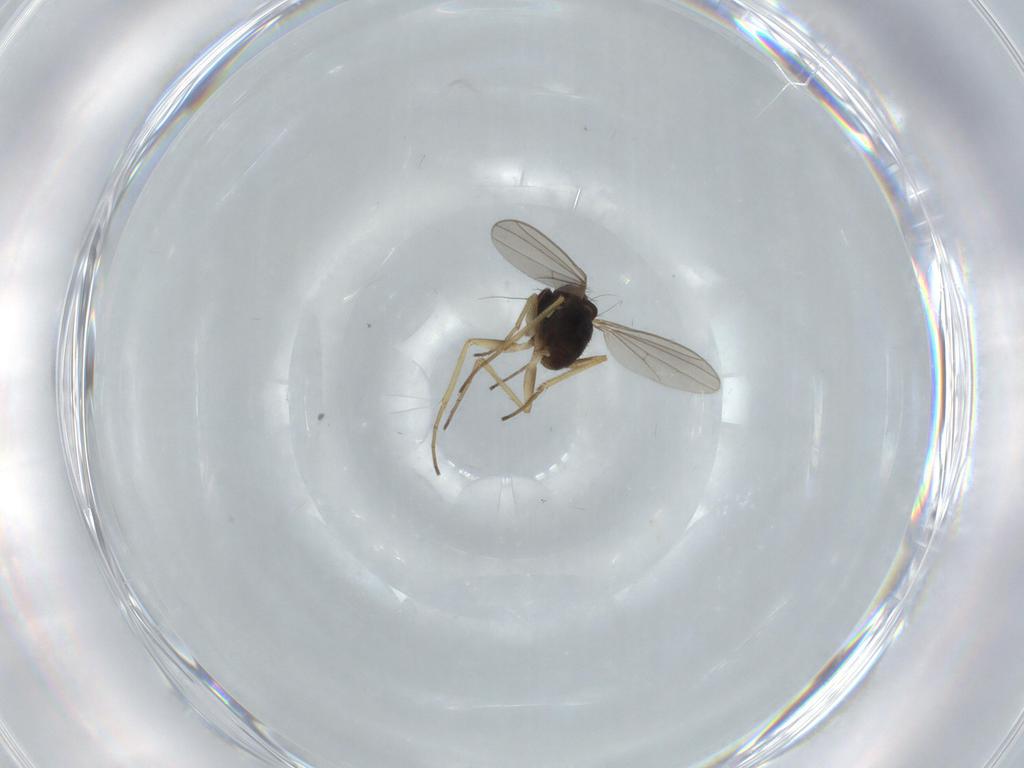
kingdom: Animalia
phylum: Arthropoda
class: Insecta
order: Diptera
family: Dolichopodidae
